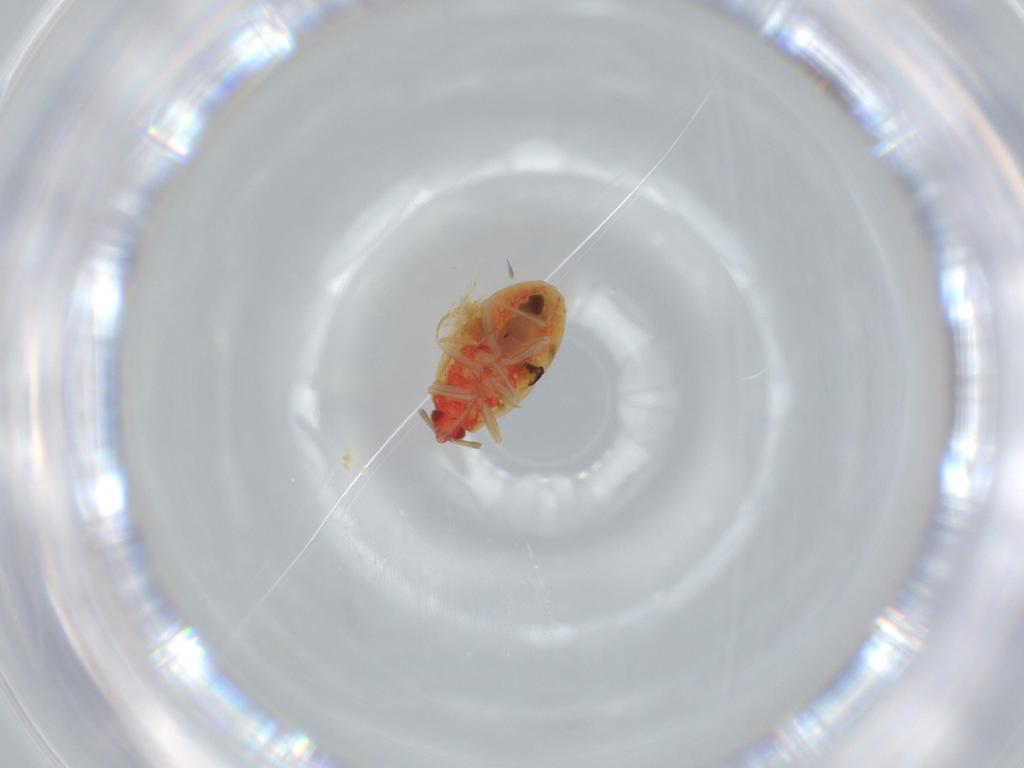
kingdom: Animalia
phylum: Arthropoda
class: Insecta
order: Hemiptera
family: Anthocoridae
